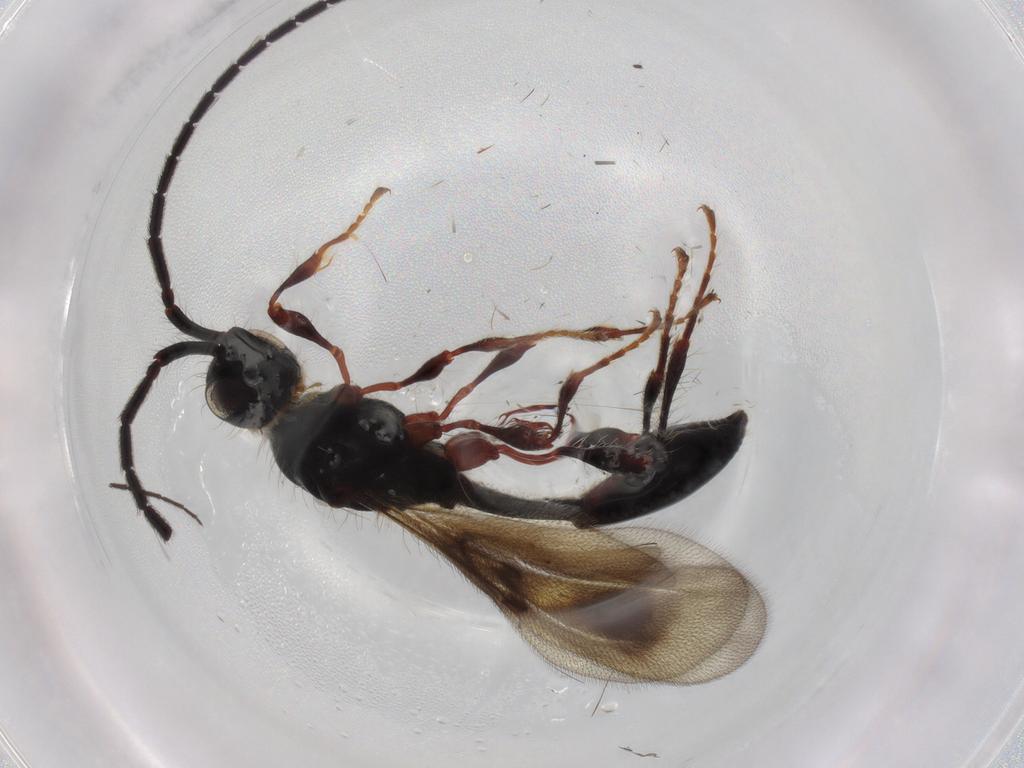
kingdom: Animalia
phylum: Arthropoda
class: Insecta
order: Hymenoptera
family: Diapriidae
